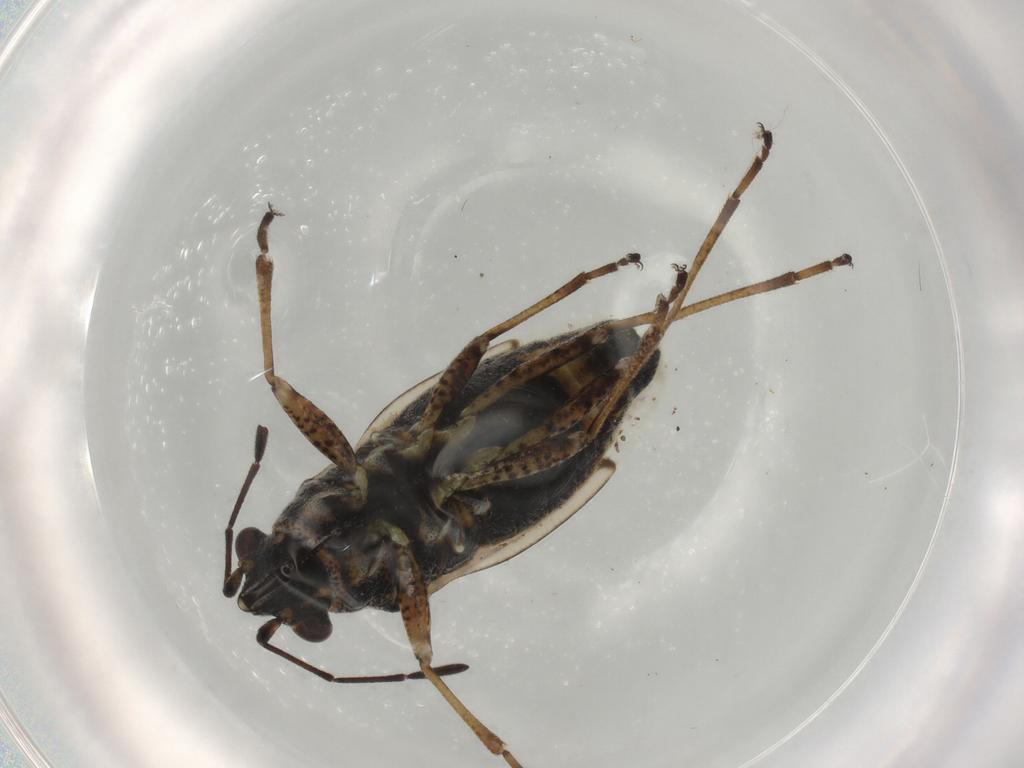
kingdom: Animalia
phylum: Arthropoda
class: Insecta
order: Hemiptera
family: Lygaeidae
